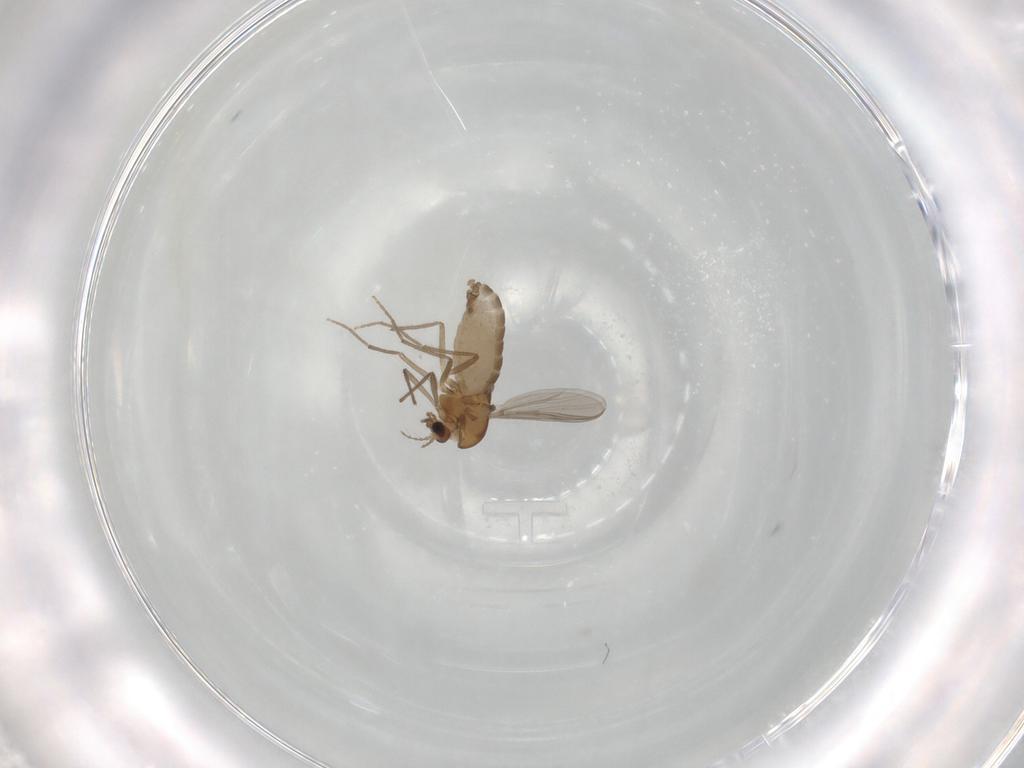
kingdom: Animalia
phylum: Arthropoda
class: Insecta
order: Diptera
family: Chironomidae
